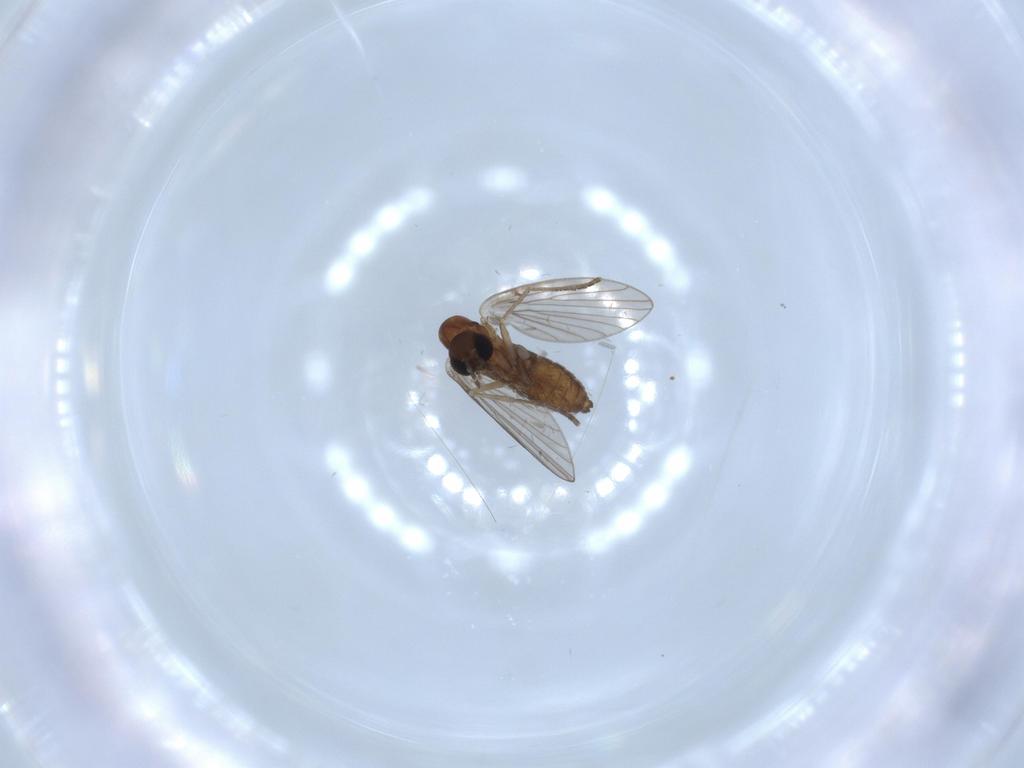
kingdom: Animalia
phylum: Arthropoda
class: Insecta
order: Diptera
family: Psychodidae
